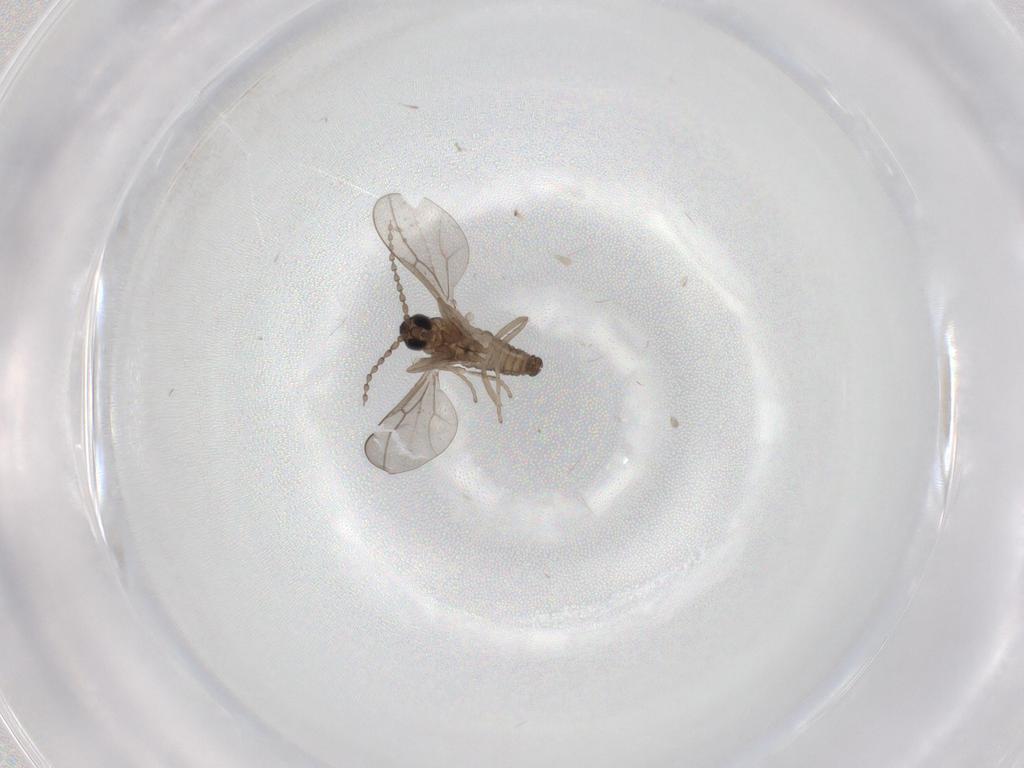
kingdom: Animalia
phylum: Arthropoda
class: Insecta
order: Diptera
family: Cecidomyiidae
